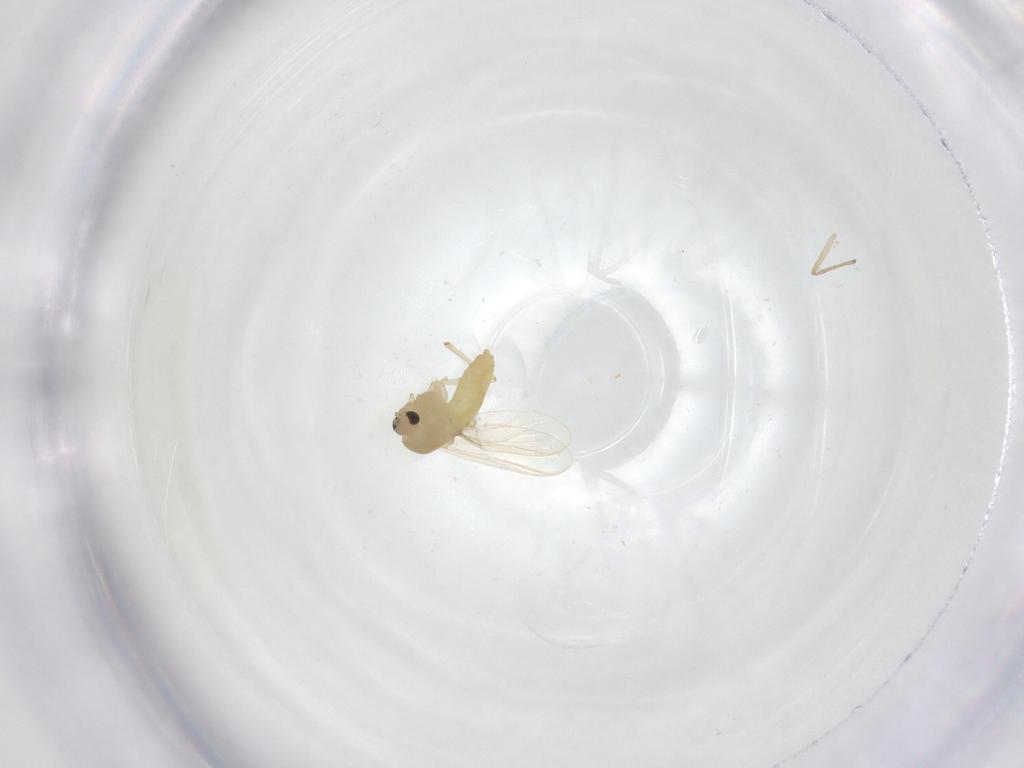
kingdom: Animalia
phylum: Arthropoda
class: Insecta
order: Diptera
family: Chironomidae
